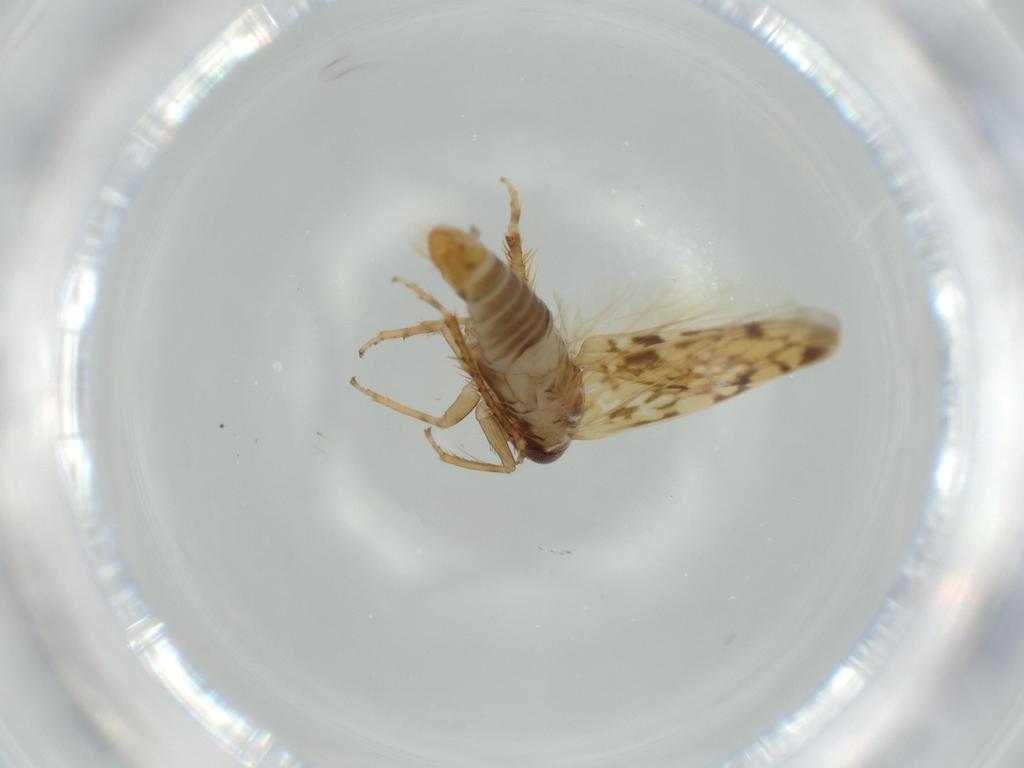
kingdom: Animalia
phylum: Arthropoda
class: Insecta
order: Hemiptera
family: Cicadellidae
